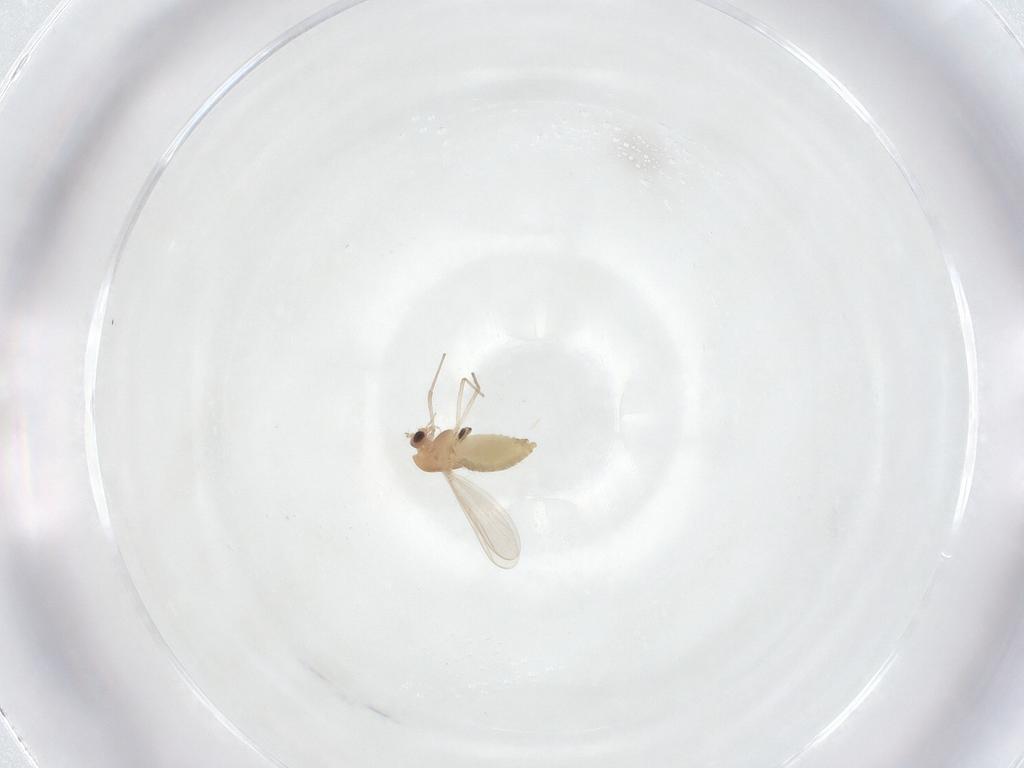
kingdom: Animalia
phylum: Arthropoda
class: Insecta
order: Diptera
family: Chironomidae
